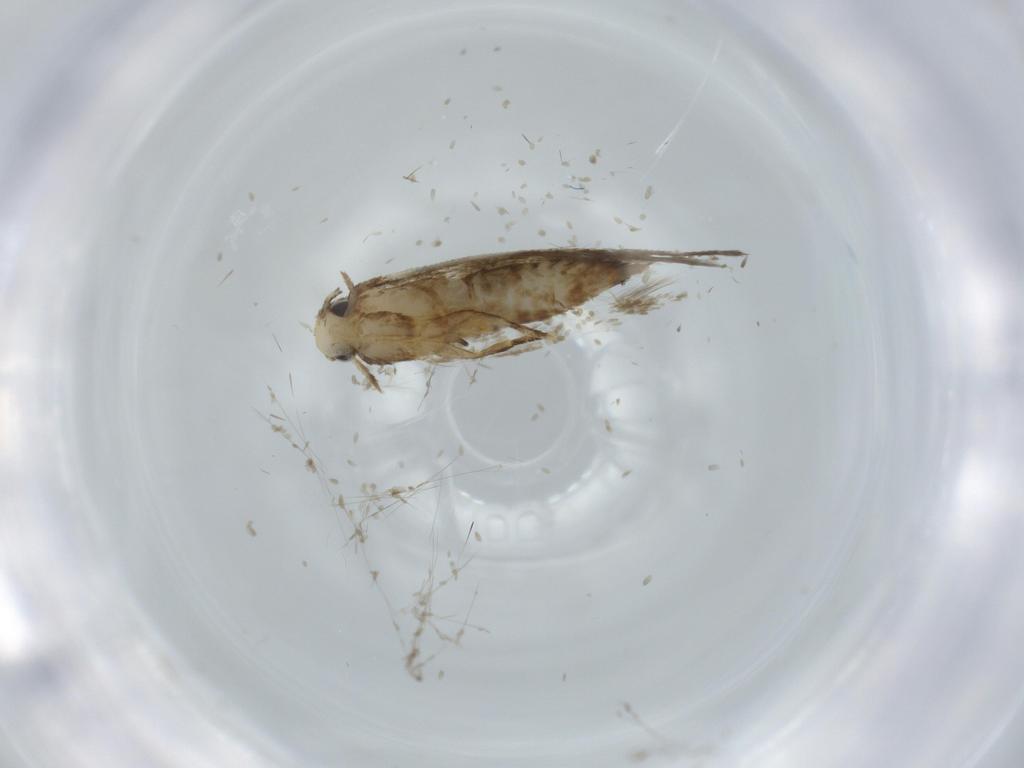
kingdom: Animalia
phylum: Arthropoda
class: Insecta
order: Lepidoptera
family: Tineidae
